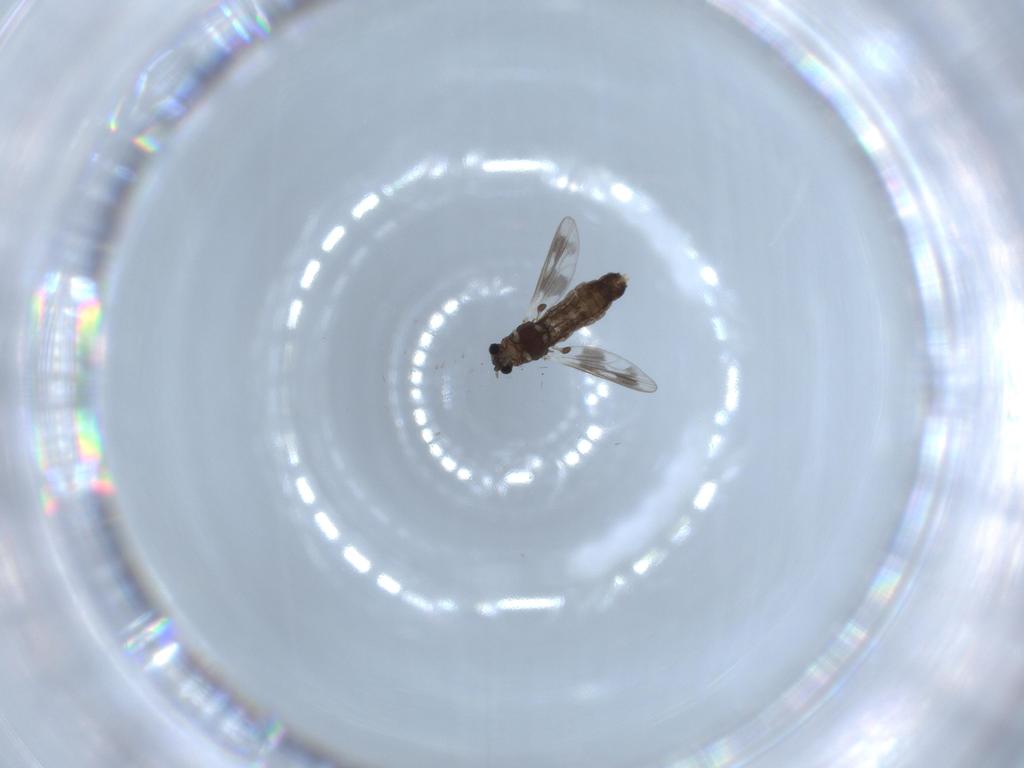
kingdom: Animalia
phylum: Arthropoda
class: Insecta
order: Diptera
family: Chironomidae
